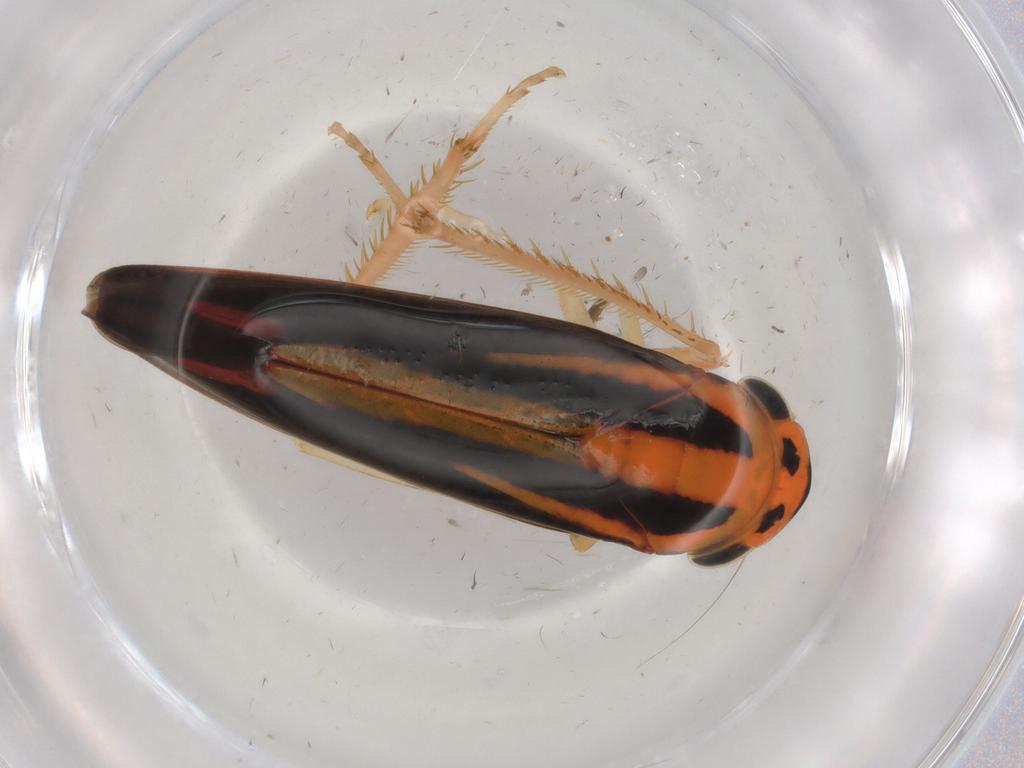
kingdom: Animalia
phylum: Arthropoda
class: Insecta
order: Hemiptera
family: Cicadellidae
